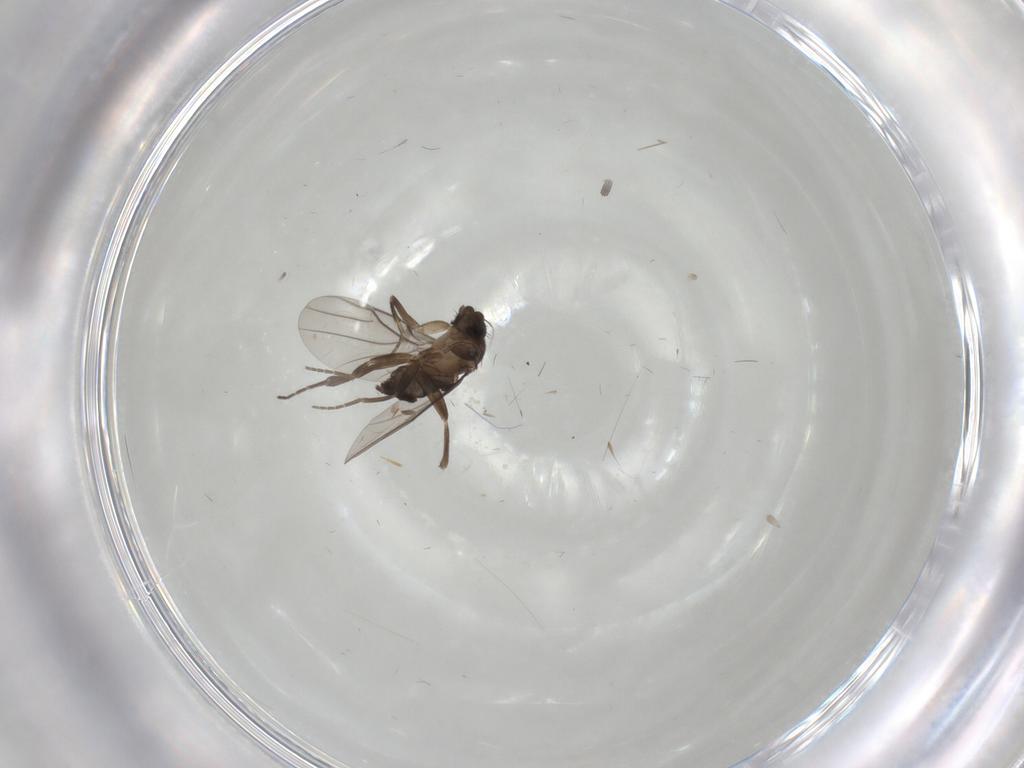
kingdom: Animalia
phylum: Arthropoda
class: Insecta
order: Diptera
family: Phoridae
